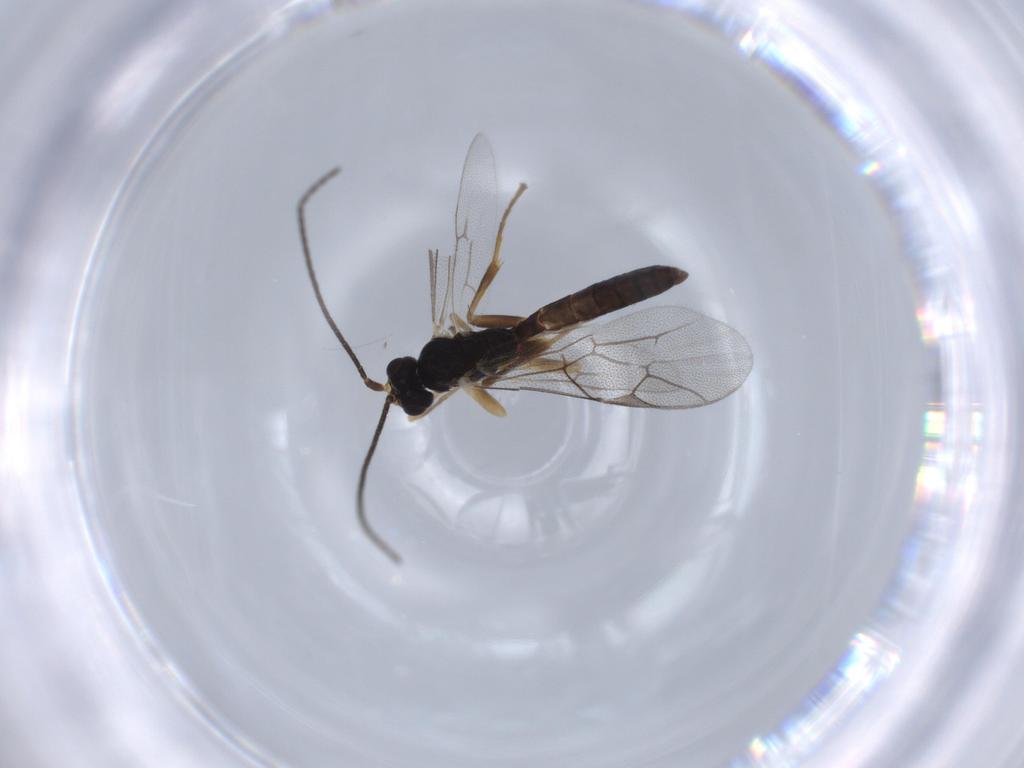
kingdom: Animalia
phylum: Arthropoda
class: Insecta
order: Hymenoptera
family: Ichneumonidae
